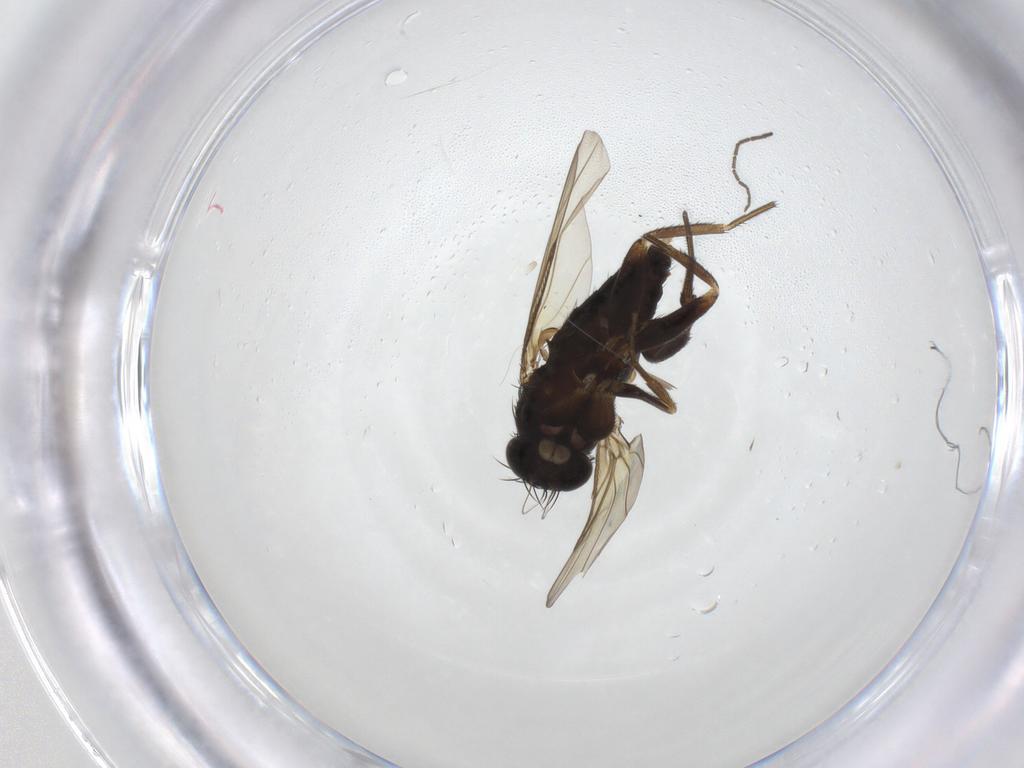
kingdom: Animalia
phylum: Arthropoda
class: Insecta
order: Diptera
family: Phoridae
